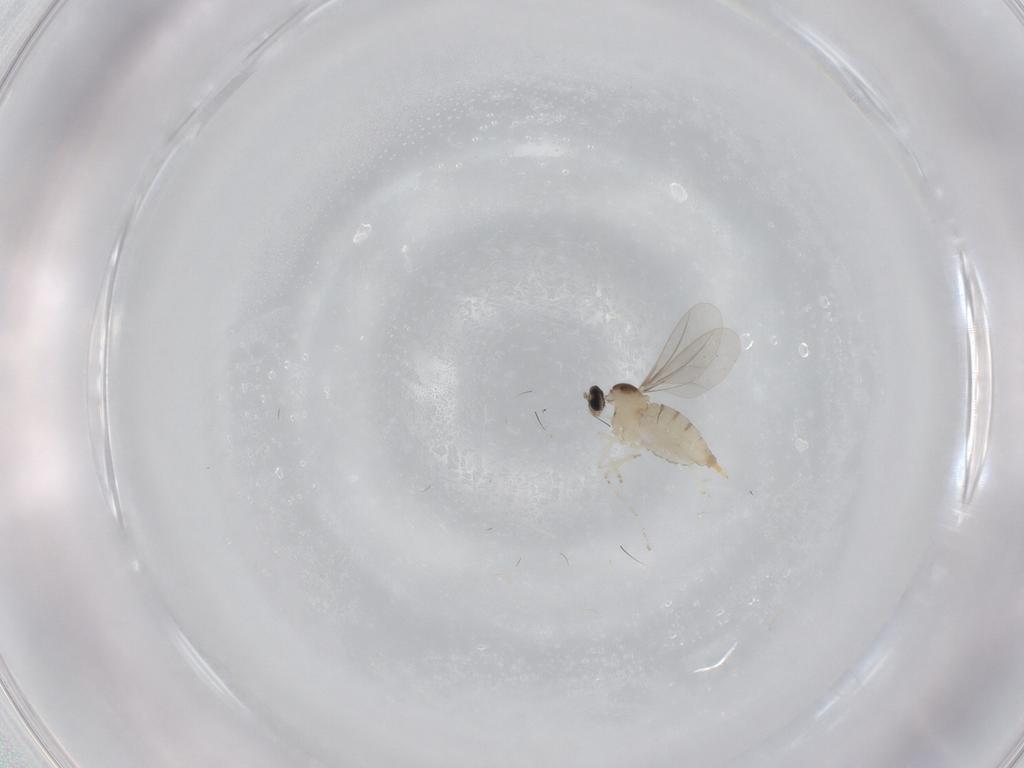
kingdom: Animalia
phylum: Arthropoda
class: Insecta
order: Diptera
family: Cecidomyiidae
